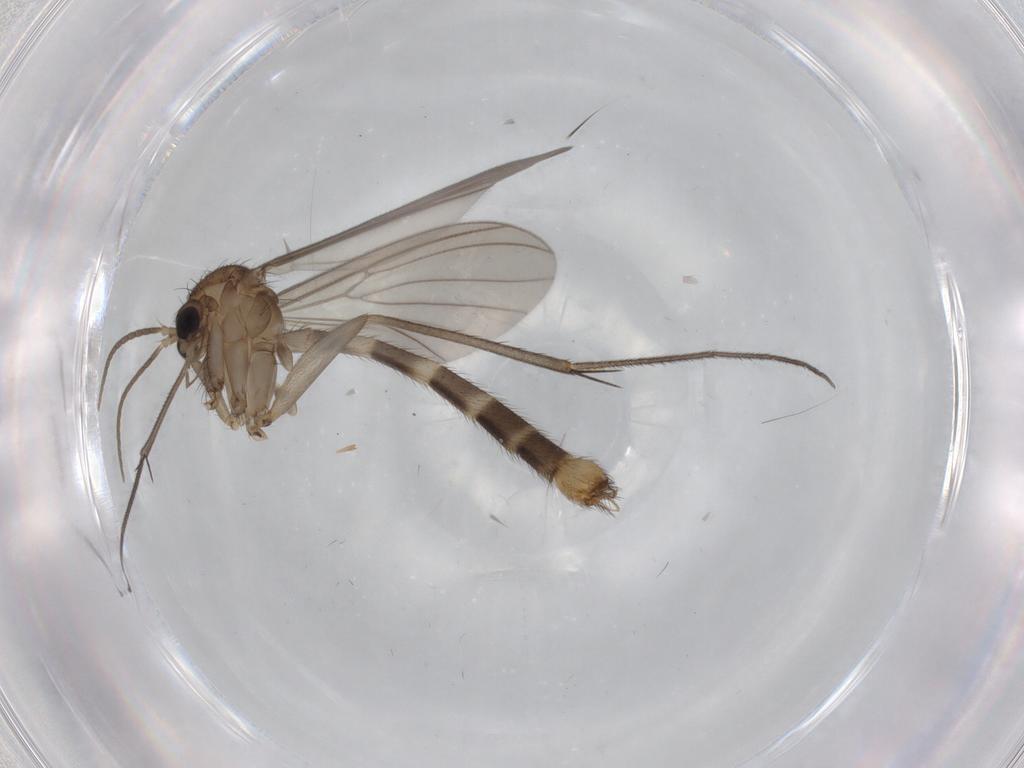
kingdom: Animalia
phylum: Arthropoda
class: Insecta
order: Diptera
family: Mycetophilidae
